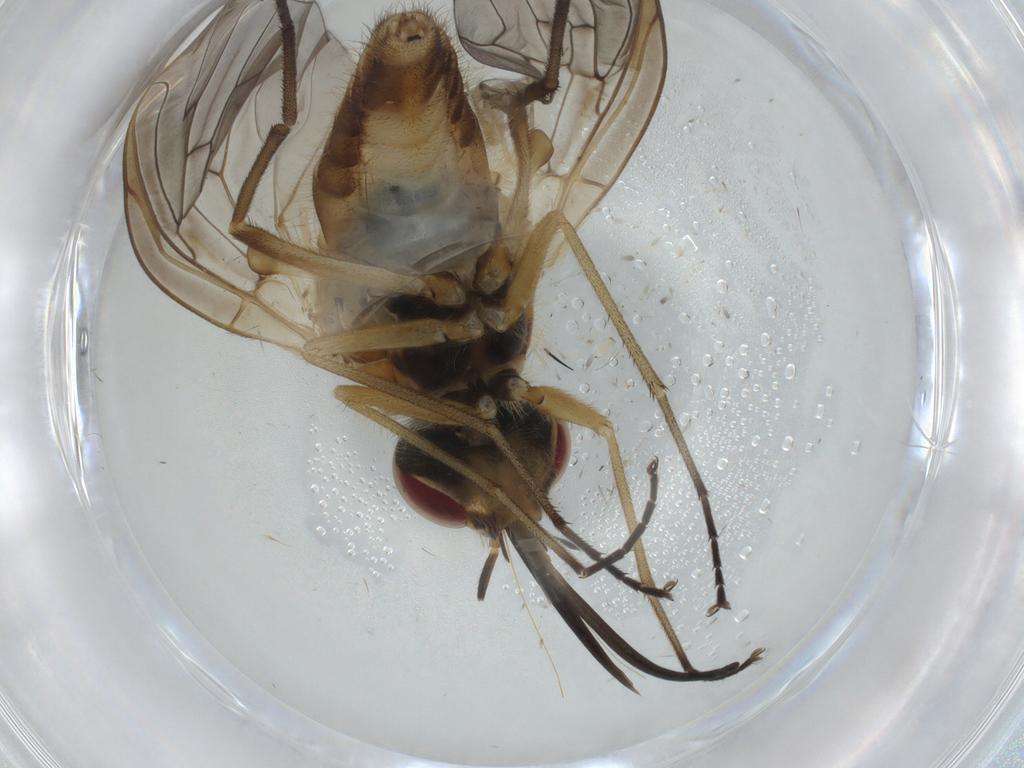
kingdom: Animalia
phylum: Arthropoda
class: Insecta
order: Diptera
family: Bombyliidae
